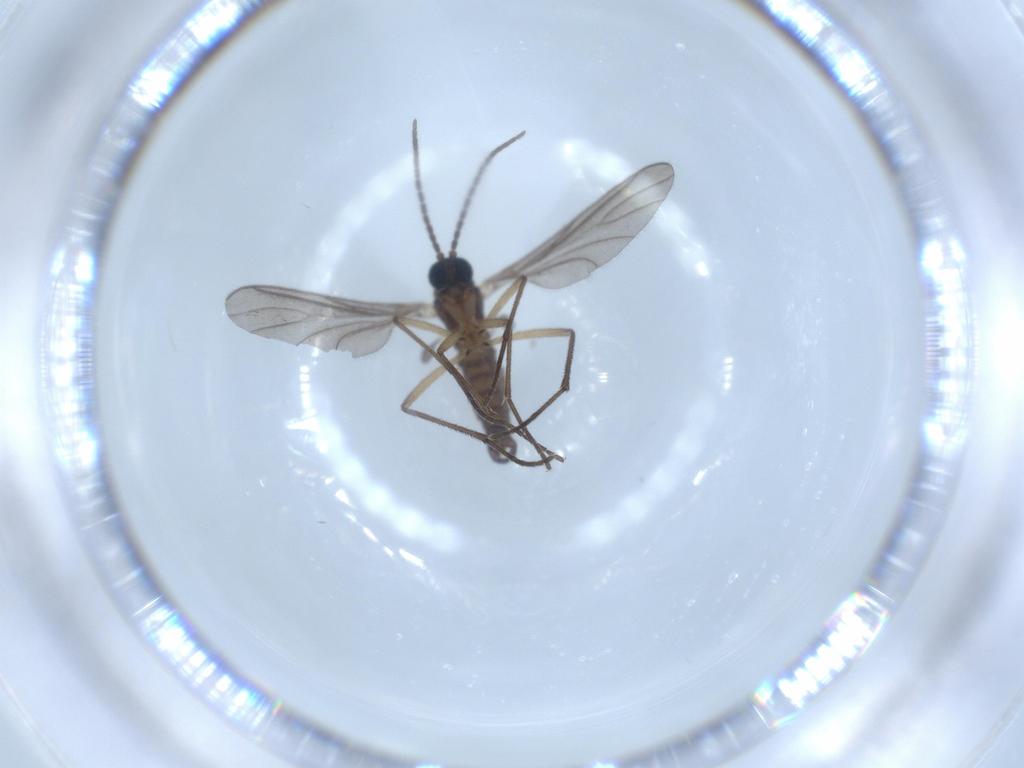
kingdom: Animalia
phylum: Arthropoda
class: Insecta
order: Diptera
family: Sciaridae
